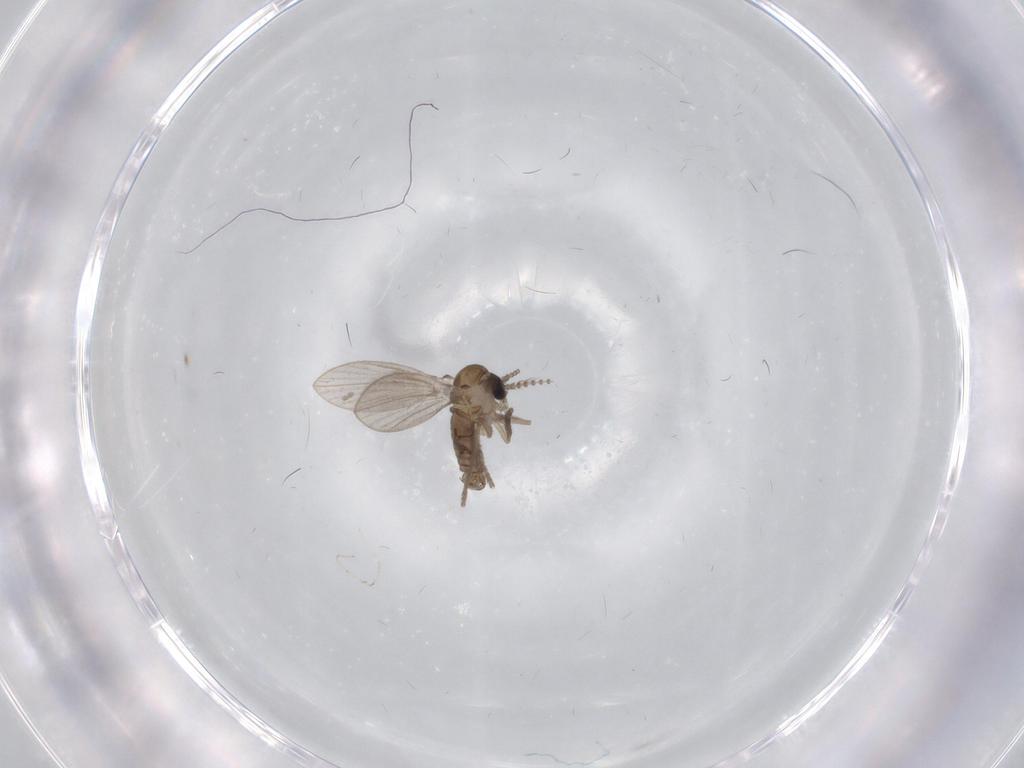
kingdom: Animalia
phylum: Arthropoda
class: Insecta
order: Diptera
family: Psychodidae
